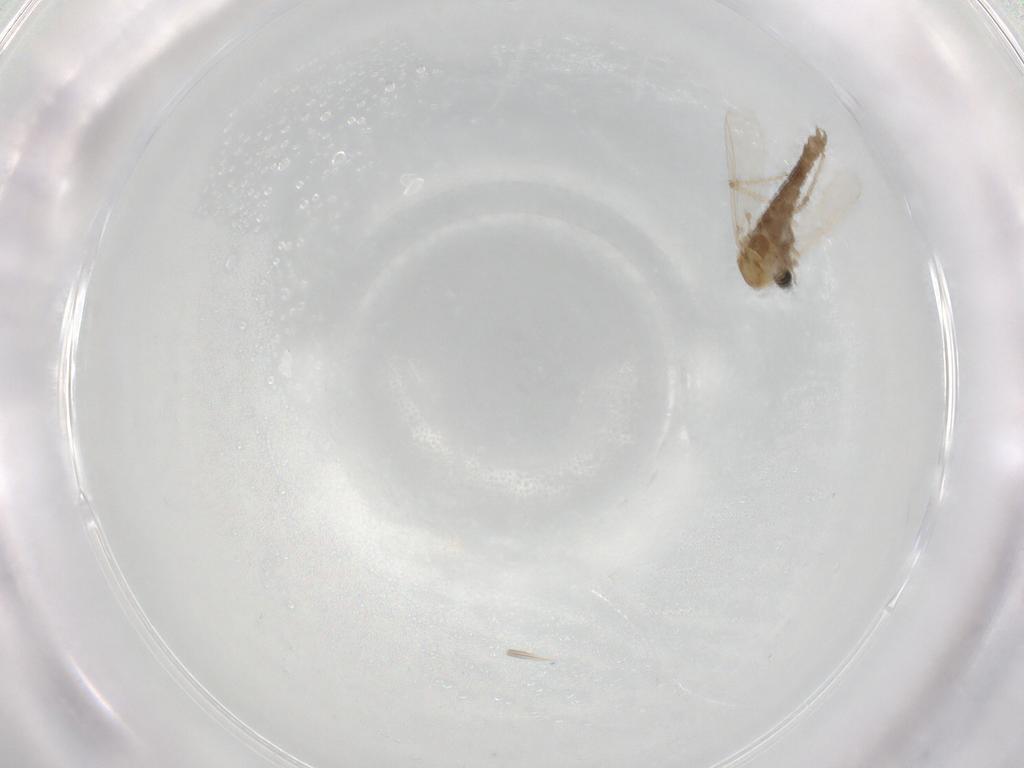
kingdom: Animalia
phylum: Arthropoda
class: Insecta
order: Diptera
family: Chironomidae
